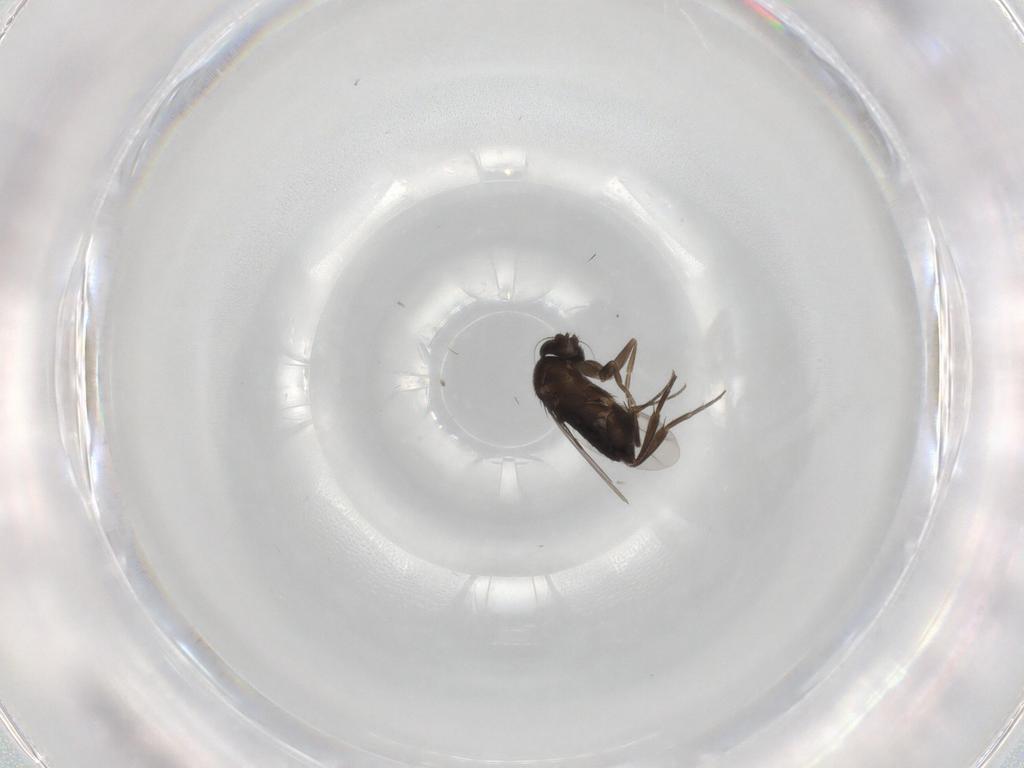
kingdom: Animalia
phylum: Arthropoda
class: Insecta
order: Diptera
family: Phoridae
